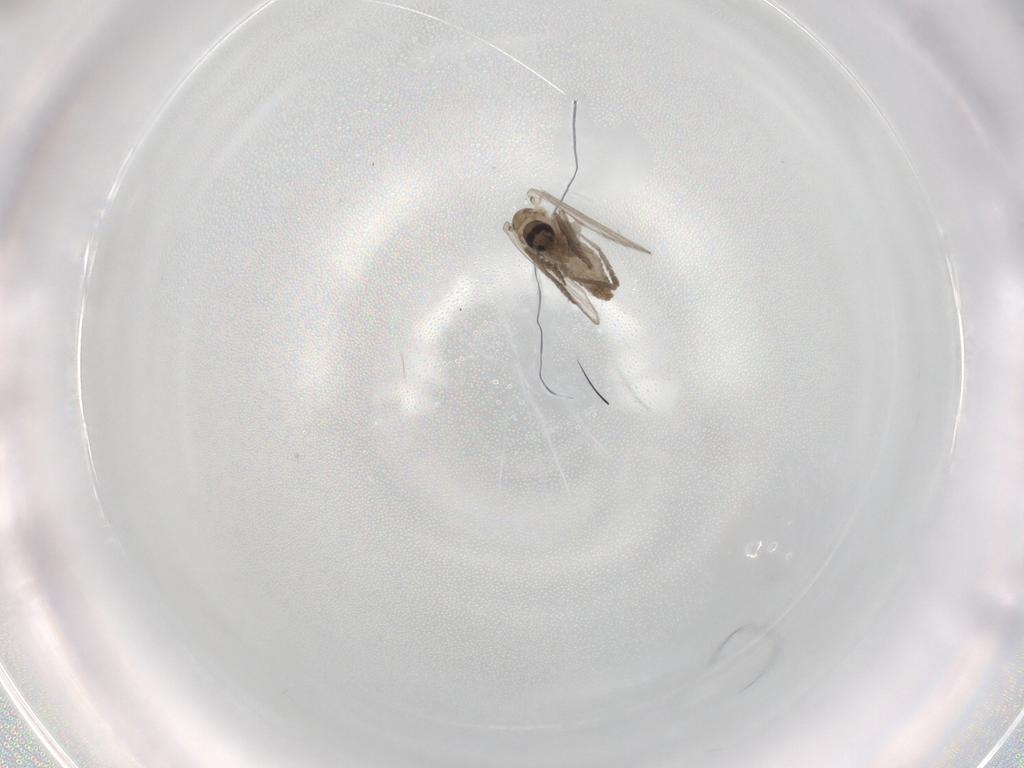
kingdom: Animalia
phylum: Arthropoda
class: Insecta
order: Diptera
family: Psychodidae
